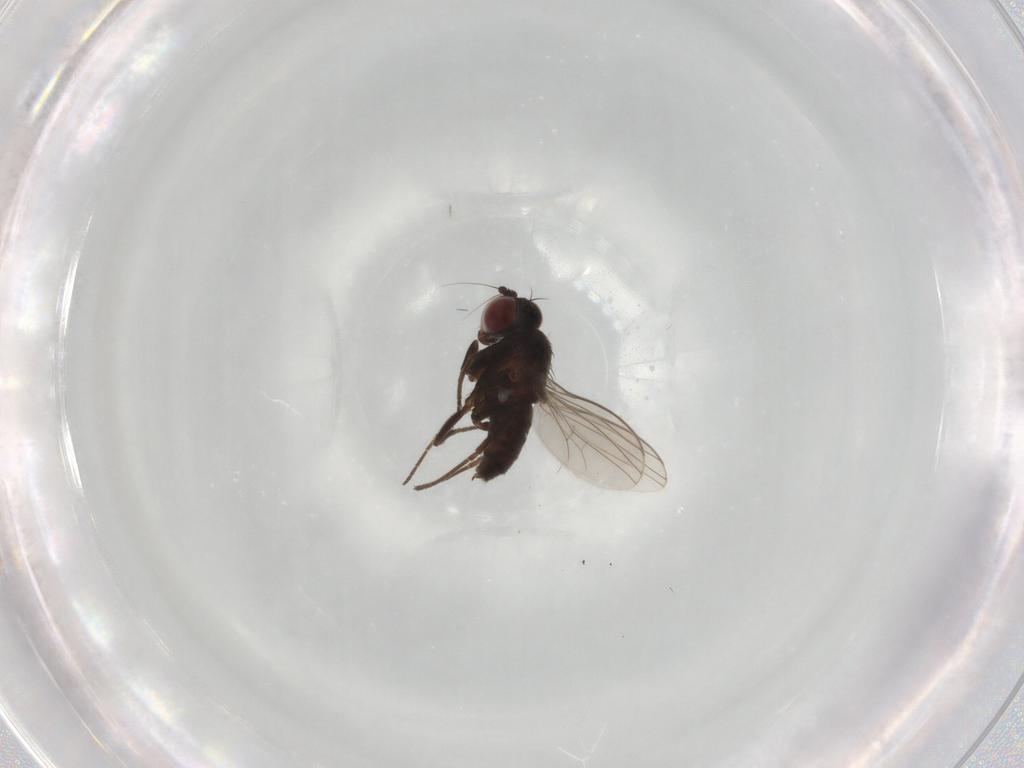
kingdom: Animalia
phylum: Arthropoda
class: Insecta
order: Diptera
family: Dolichopodidae
